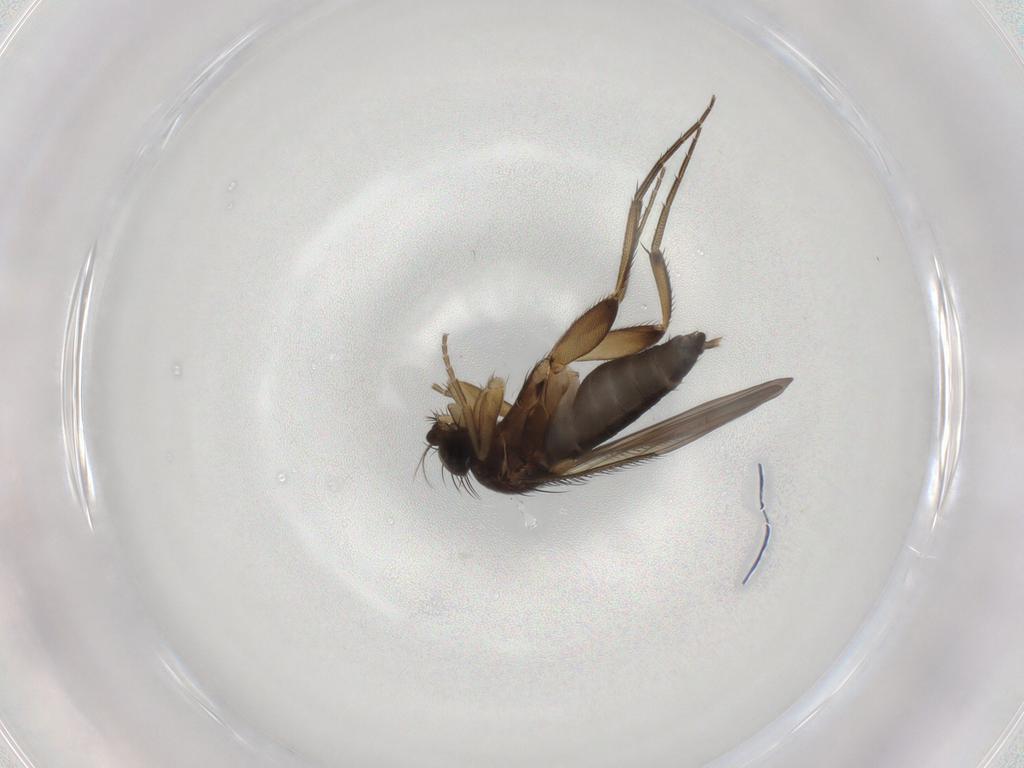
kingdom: Animalia
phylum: Arthropoda
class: Insecta
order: Diptera
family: Phoridae
